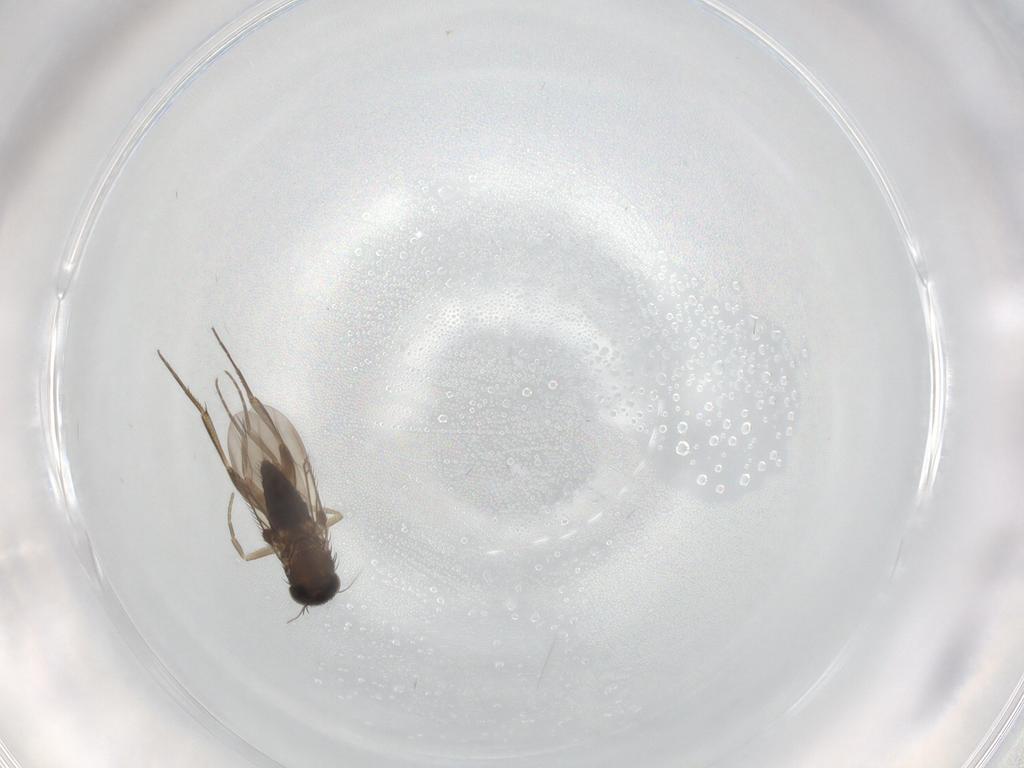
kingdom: Animalia
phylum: Arthropoda
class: Insecta
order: Diptera
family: Phoridae
